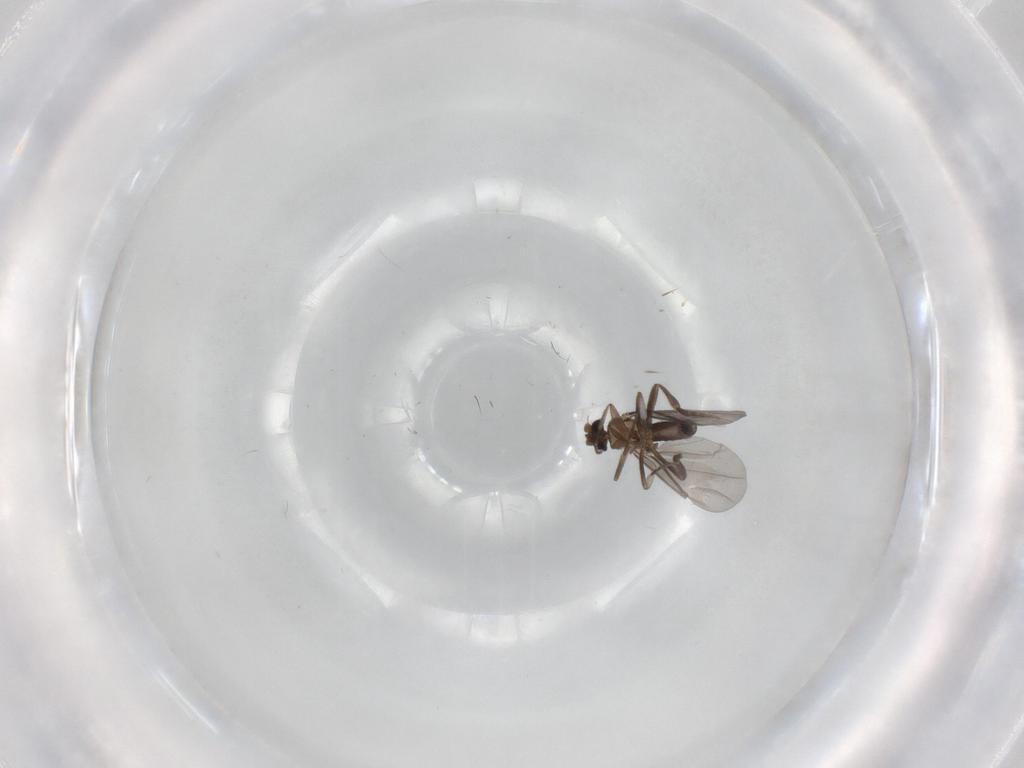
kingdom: Animalia
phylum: Arthropoda
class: Insecta
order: Diptera
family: Phoridae
